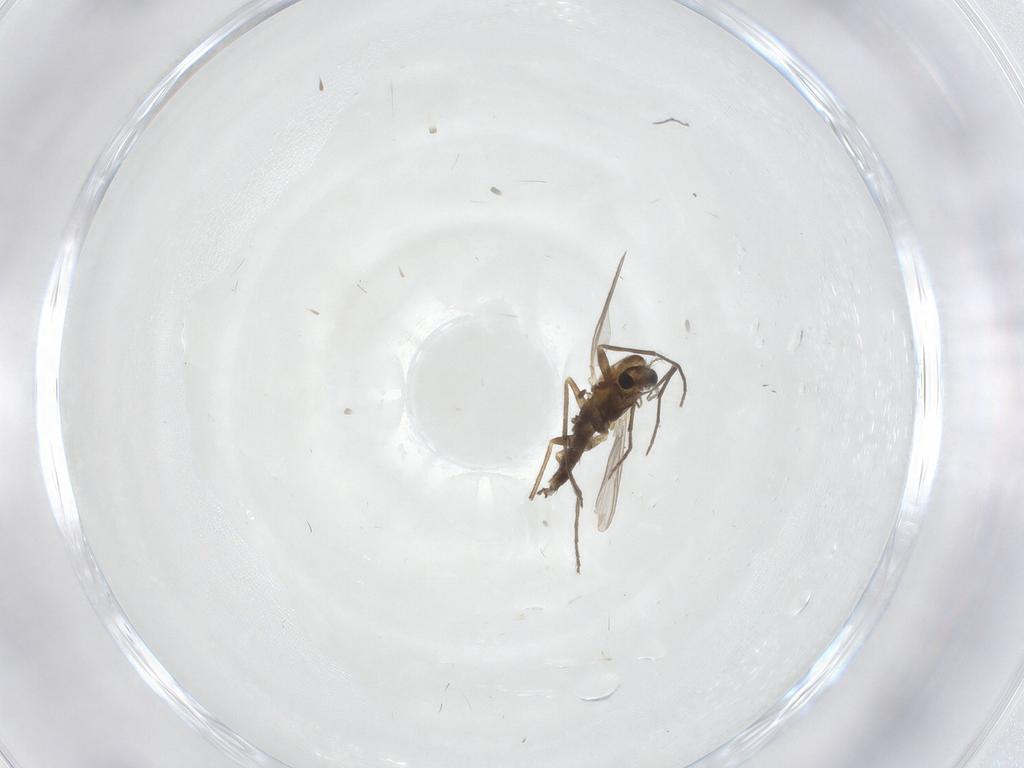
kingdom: Animalia
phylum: Arthropoda
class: Insecta
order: Diptera
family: Chironomidae
